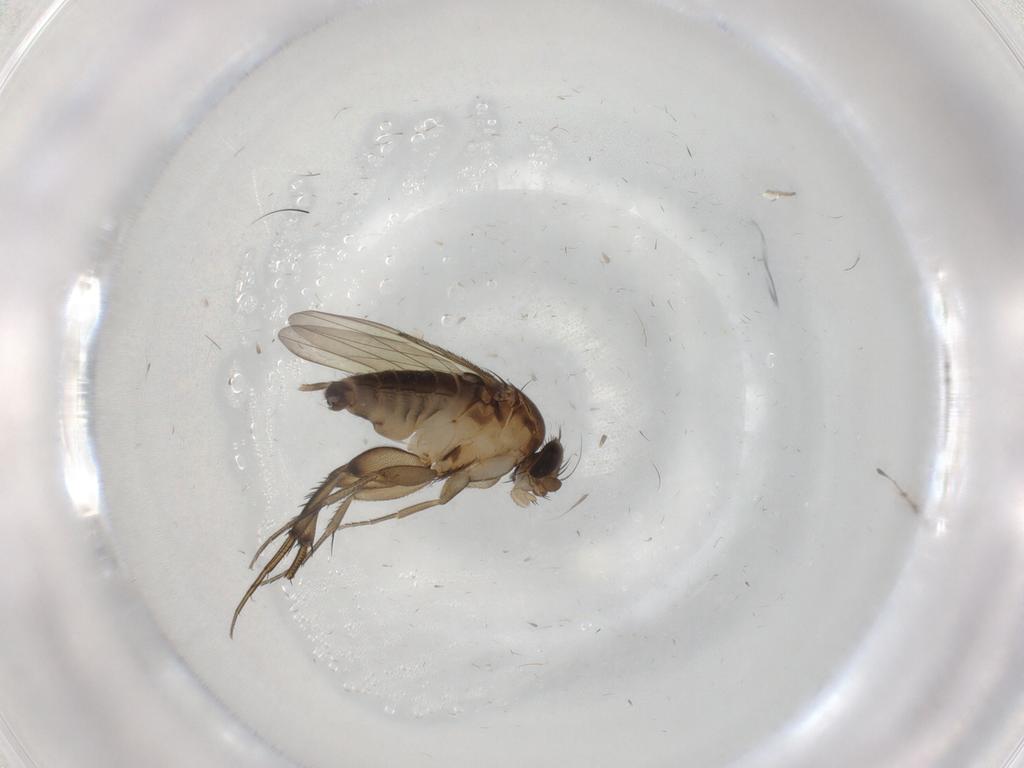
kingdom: Animalia
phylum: Arthropoda
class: Insecta
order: Diptera
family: Phoridae
